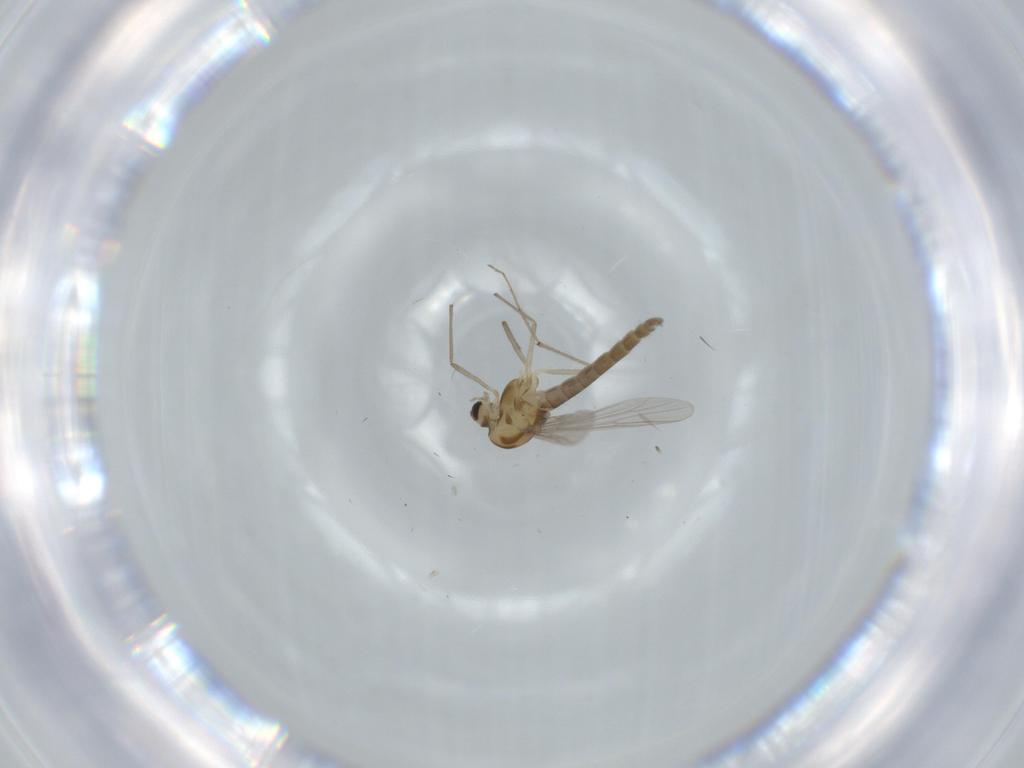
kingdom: Animalia
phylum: Arthropoda
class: Insecta
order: Diptera
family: Chironomidae
